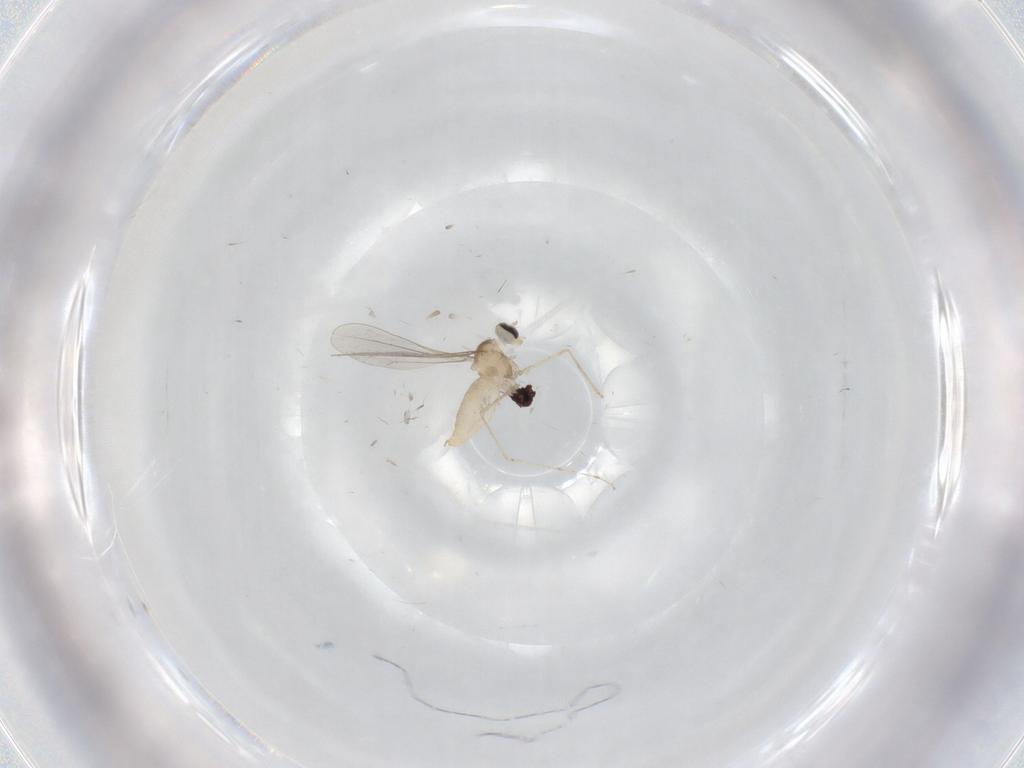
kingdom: Animalia
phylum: Arthropoda
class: Insecta
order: Diptera
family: Cecidomyiidae
